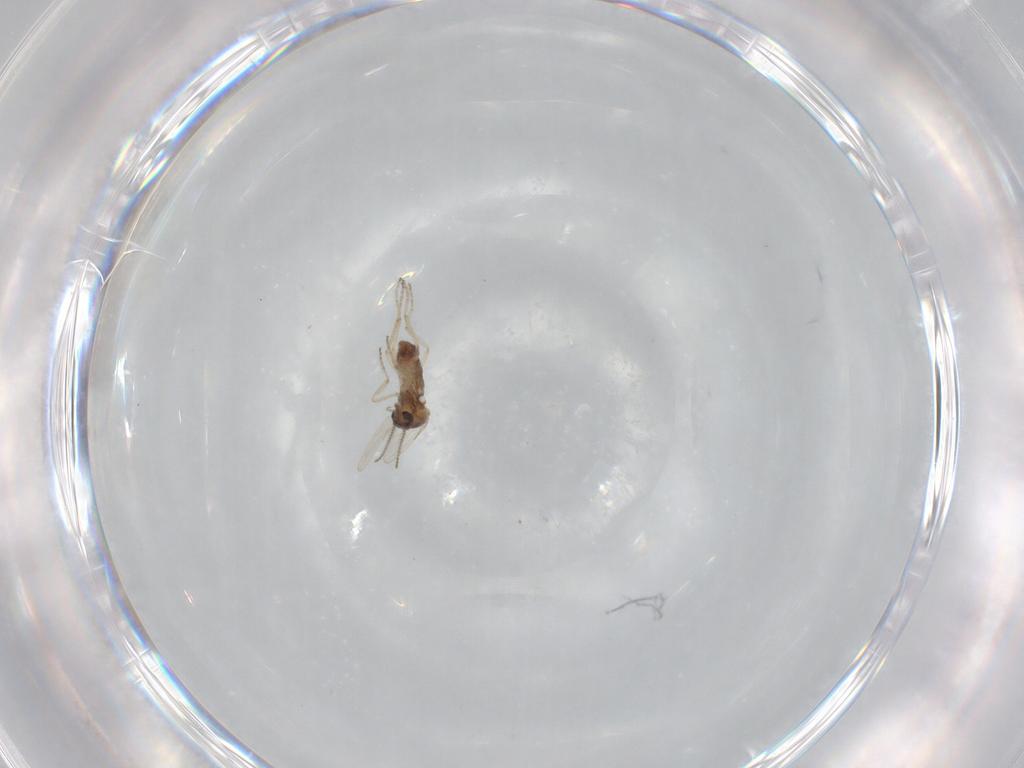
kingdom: Animalia
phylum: Arthropoda
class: Insecta
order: Diptera
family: Ceratopogonidae
